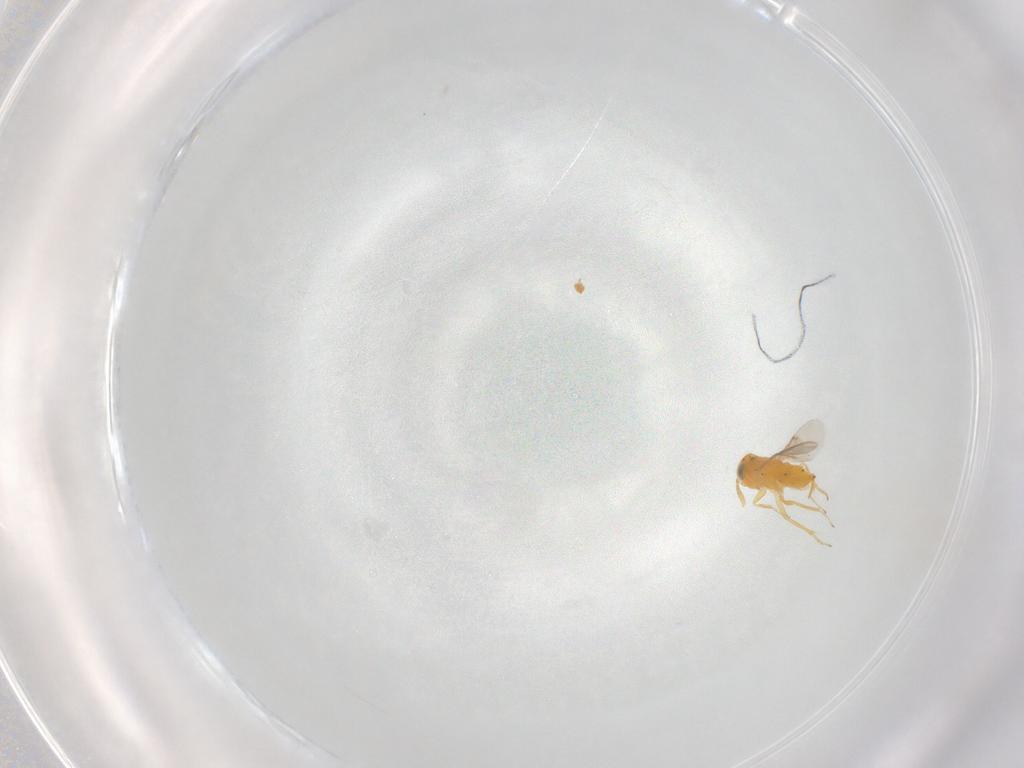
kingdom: Animalia
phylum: Arthropoda
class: Insecta
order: Hymenoptera
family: Encyrtidae
